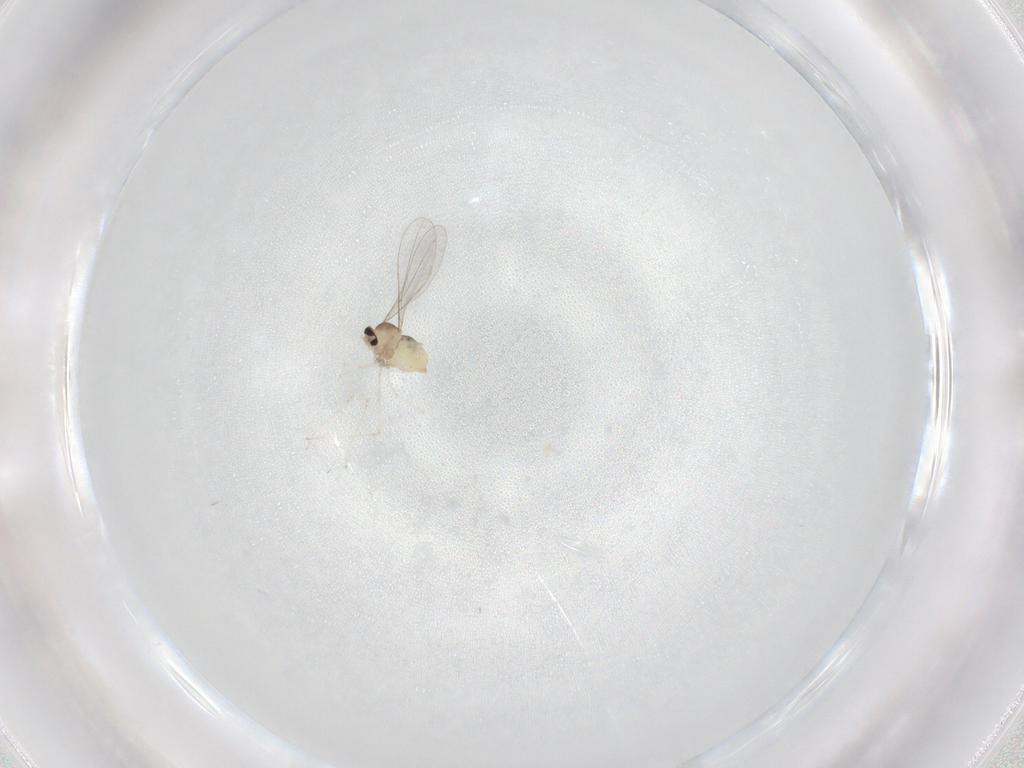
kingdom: Animalia
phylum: Arthropoda
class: Insecta
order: Diptera
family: Cecidomyiidae
